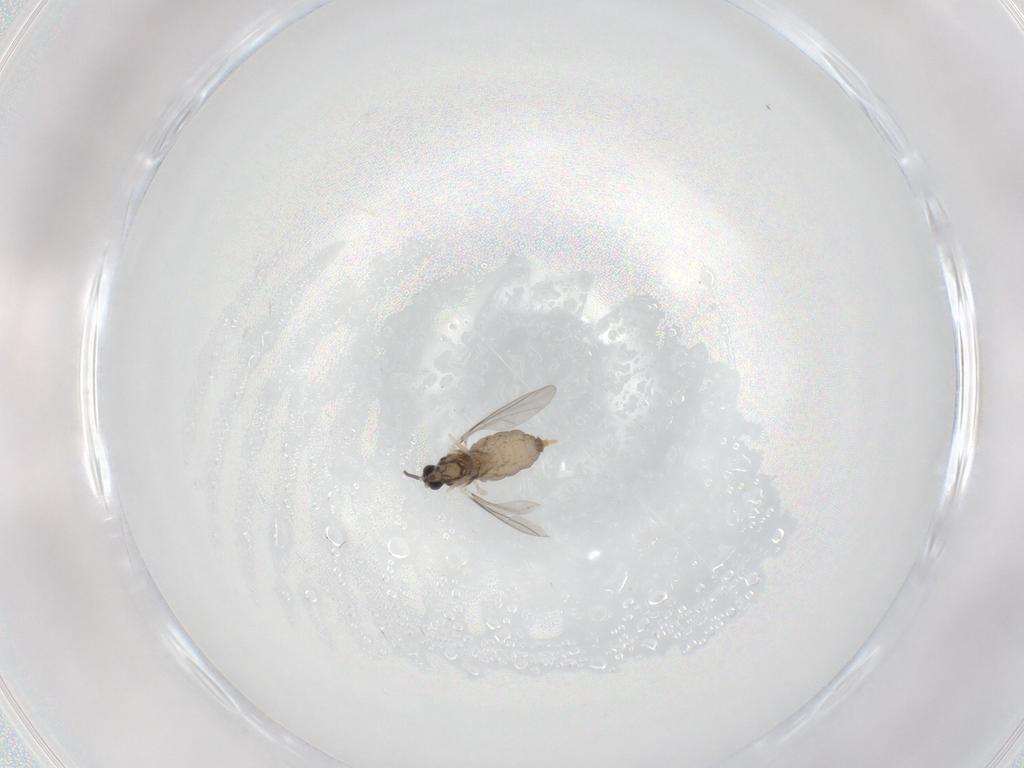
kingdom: Animalia
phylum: Arthropoda
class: Insecta
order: Diptera
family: Cecidomyiidae
